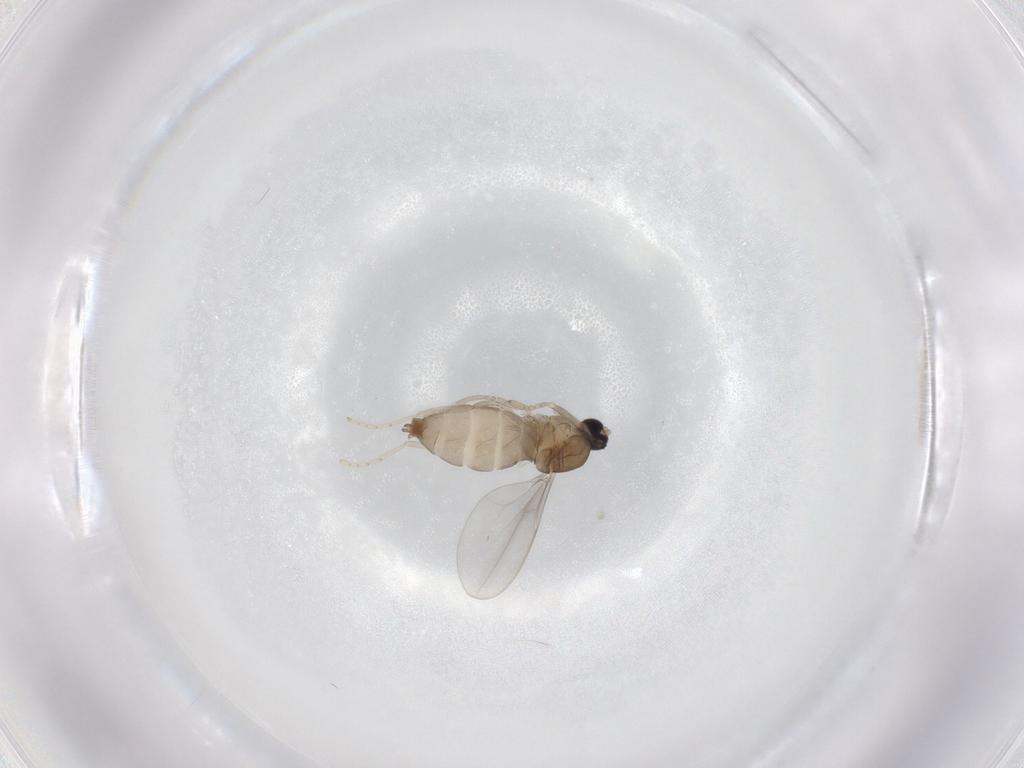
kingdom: Animalia
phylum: Arthropoda
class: Insecta
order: Diptera
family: Cecidomyiidae
